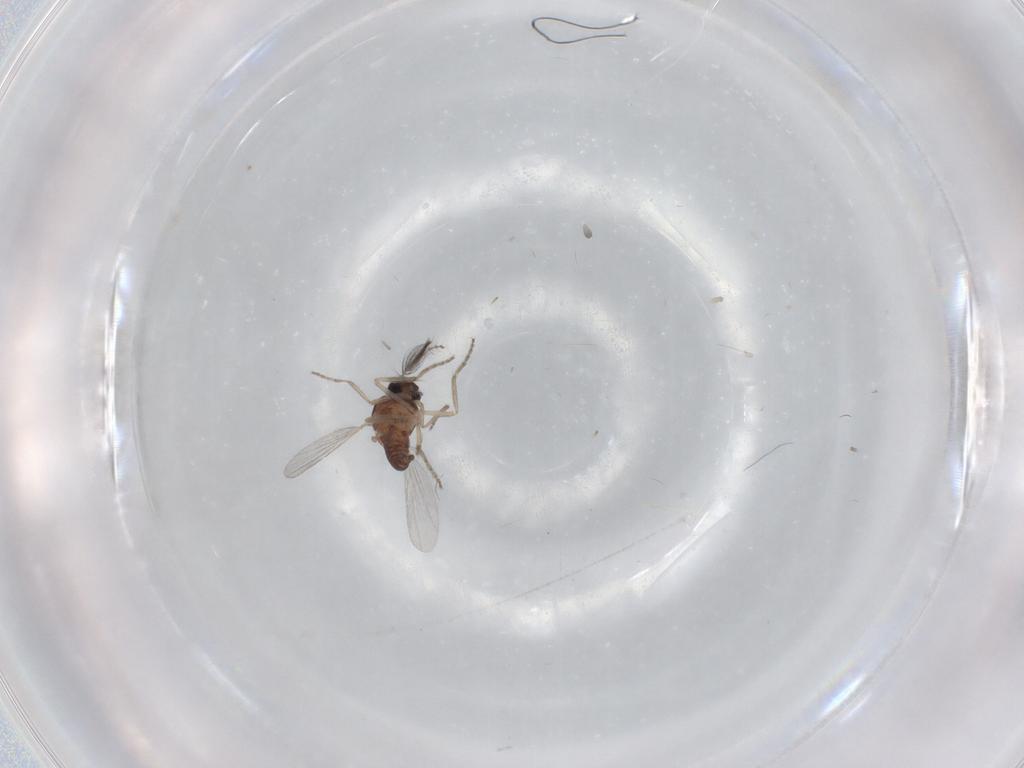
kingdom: Animalia
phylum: Arthropoda
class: Insecta
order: Diptera
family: Ceratopogonidae
